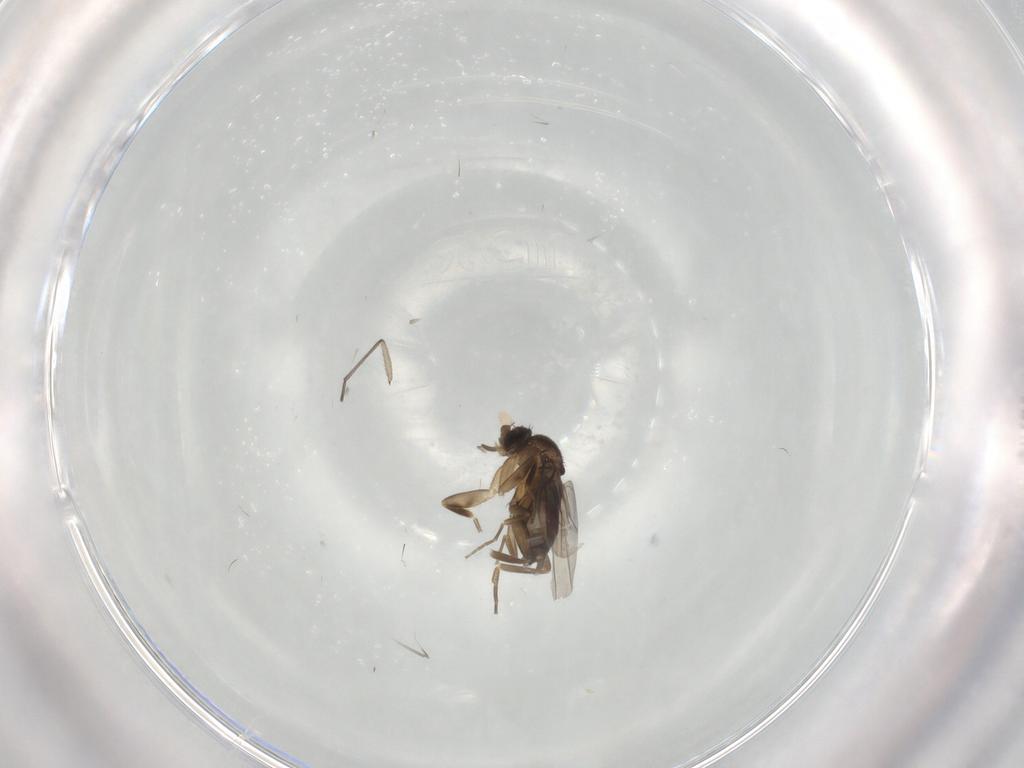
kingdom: Animalia
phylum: Arthropoda
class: Insecta
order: Diptera
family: Phoridae
